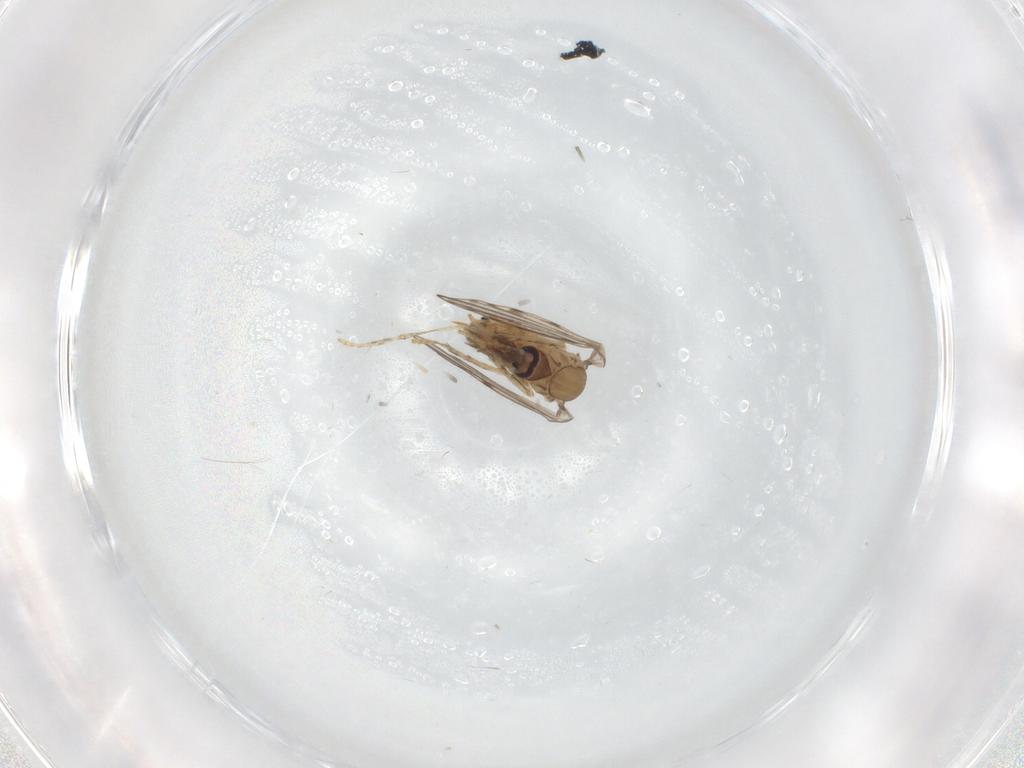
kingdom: Animalia
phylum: Arthropoda
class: Insecta
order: Diptera
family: Psychodidae
